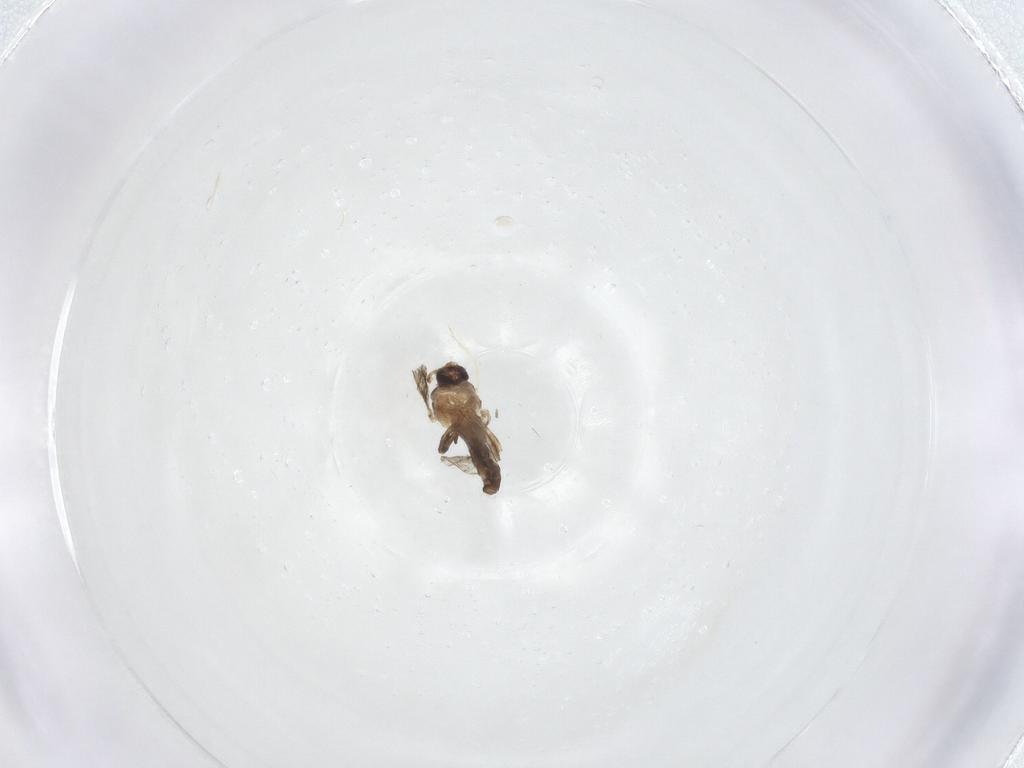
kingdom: Animalia
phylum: Arthropoda
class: Insecta
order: Diptera
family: Ceratopogonidae
